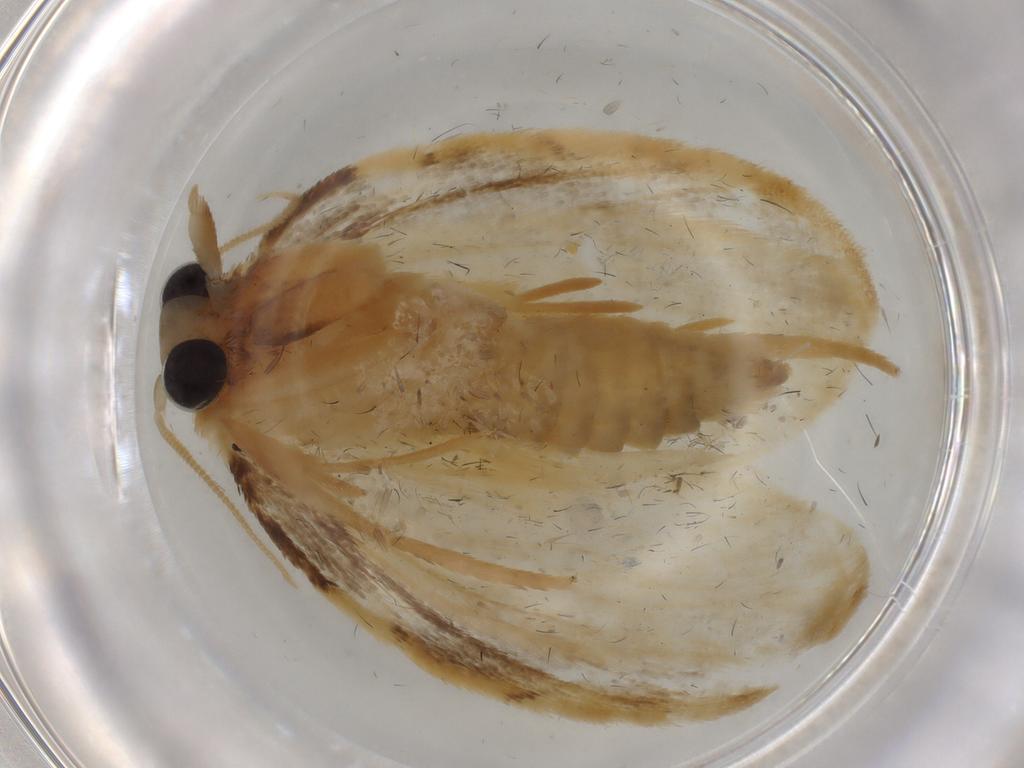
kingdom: Animalia
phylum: Arthropoda
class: Insecta
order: Lepidoptera
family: Psychidae
